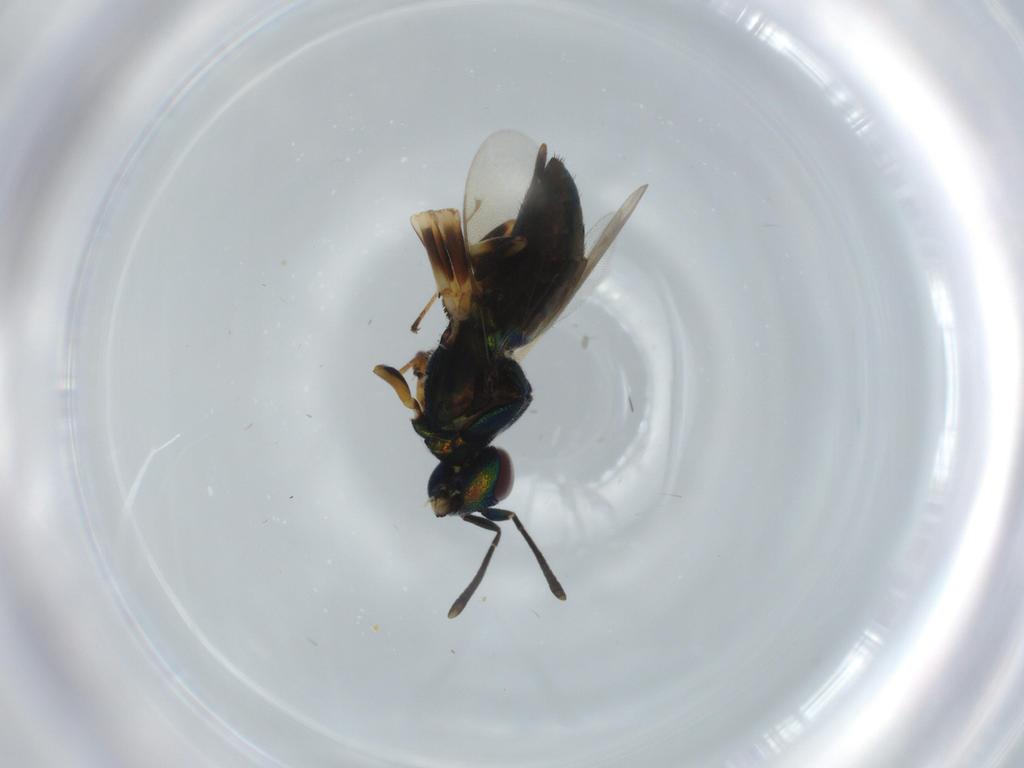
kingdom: Animalia
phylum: Arthropoda
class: Insecta
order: Hymenoptera
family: Eupelmidae
